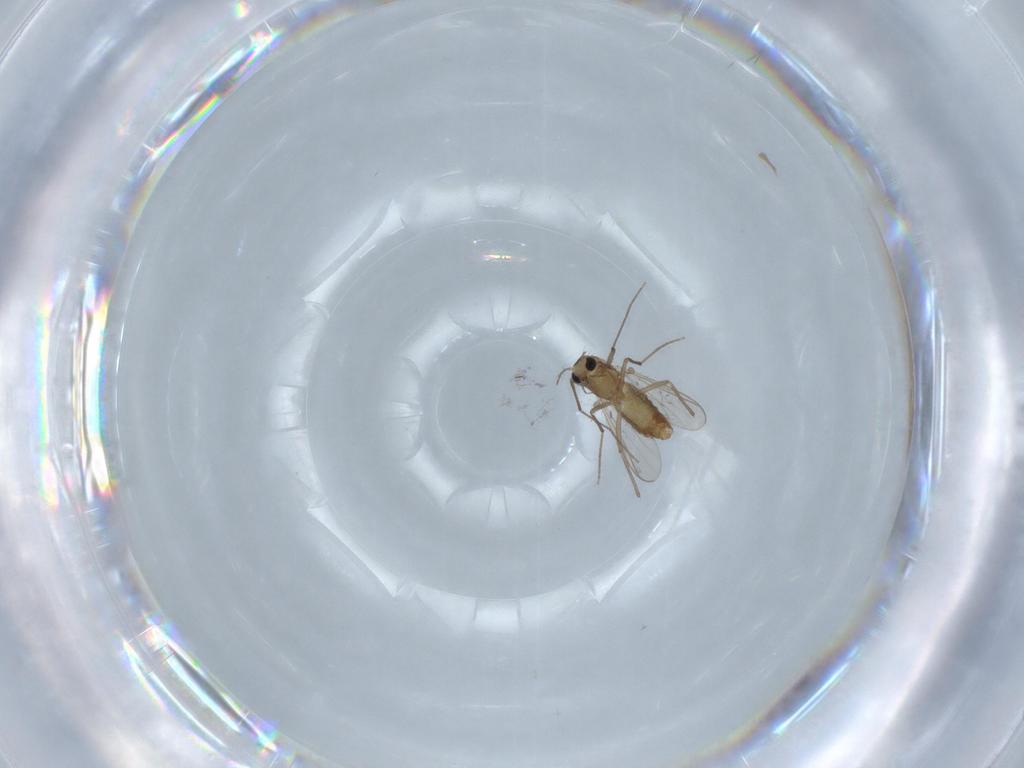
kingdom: Animalia
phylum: Arthropoda
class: Insecta
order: Diptera
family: Chironomidae
